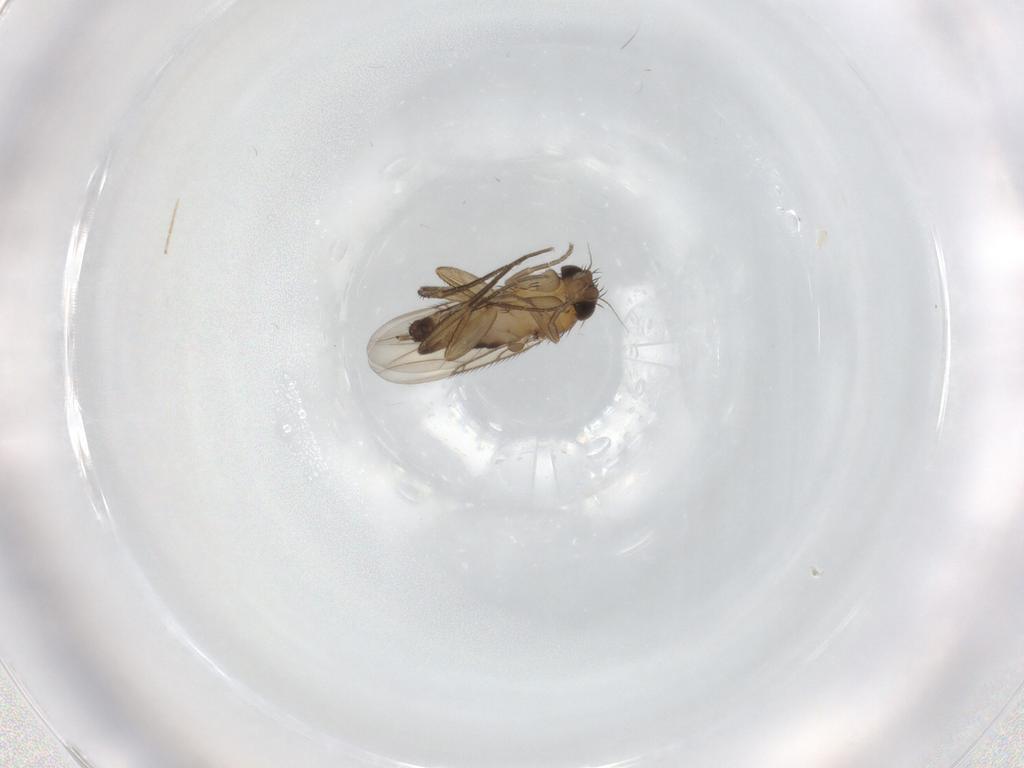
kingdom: Animalia
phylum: Arthropoda
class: Insecta
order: Diptera
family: Phoridae
